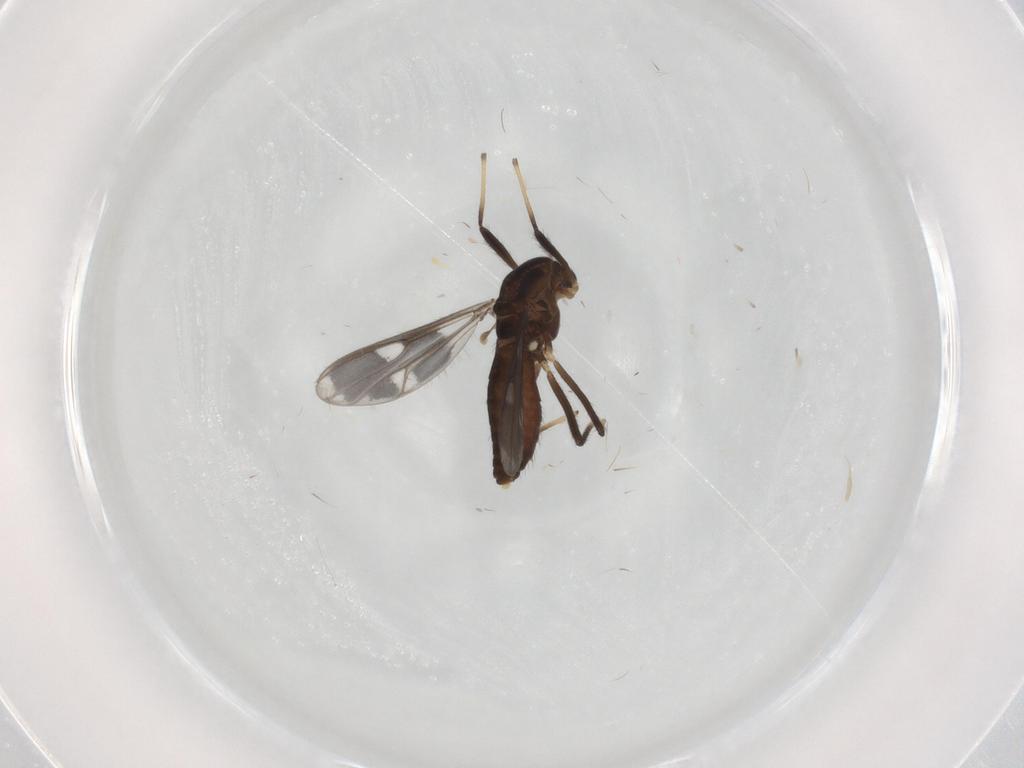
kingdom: Animalia
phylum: Arthropoda
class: Insecta
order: Diptera
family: Chironomidae
